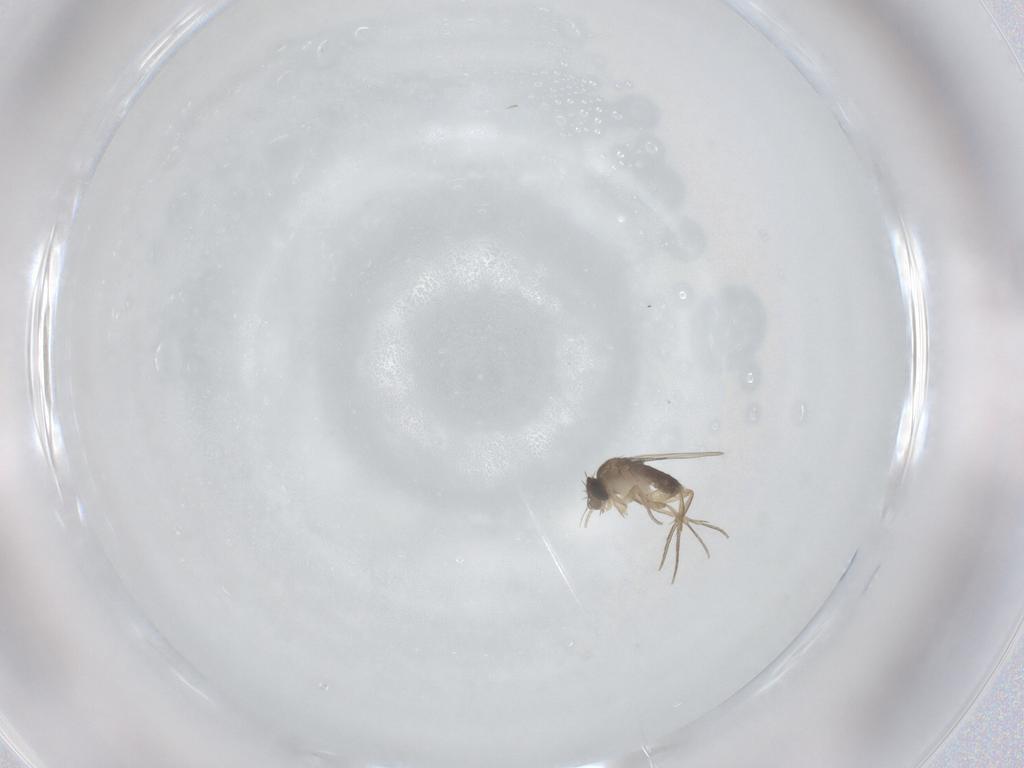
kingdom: Animalia
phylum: Arthropoda
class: Insecta
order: Diptera
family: Phoridae
